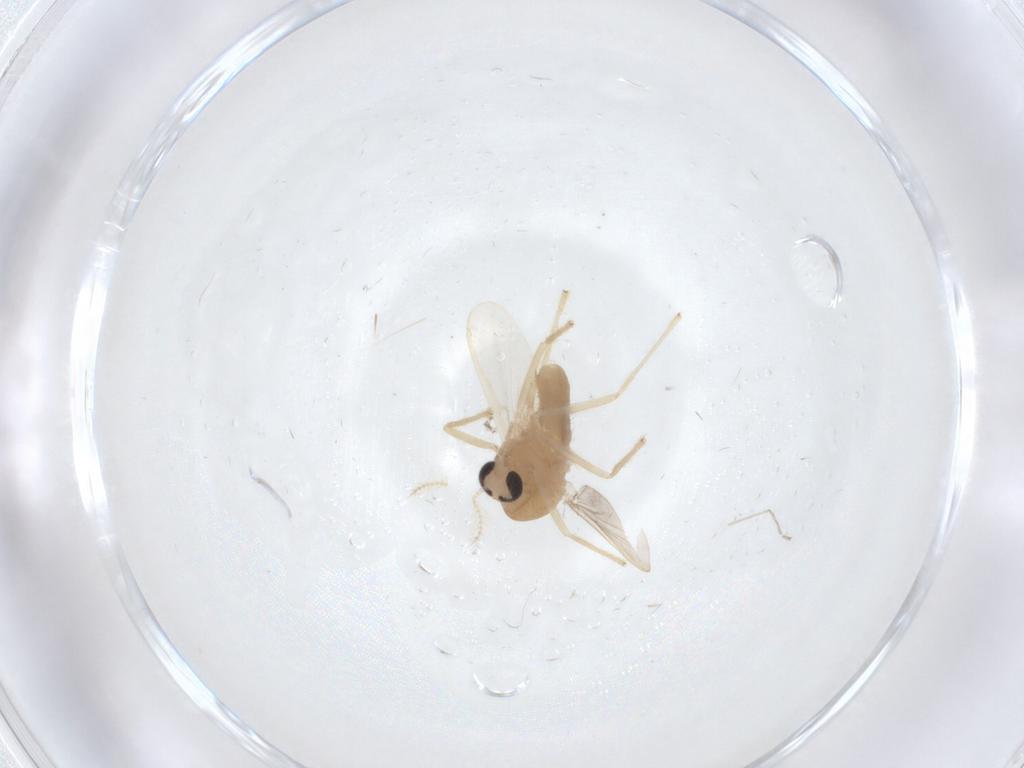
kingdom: Animalia
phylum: Arthropoda
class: Insecta
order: Diptera
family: Chironomidae
